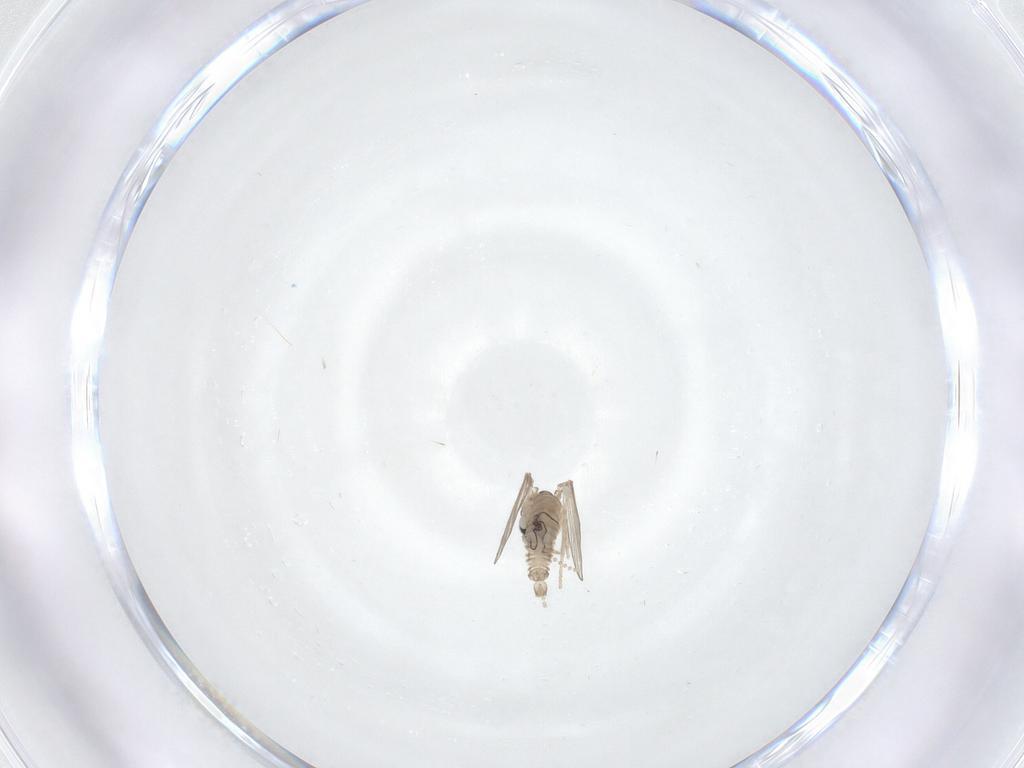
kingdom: Animalia
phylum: Arthropoda
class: Insecta
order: Diptera
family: Psychodidae
